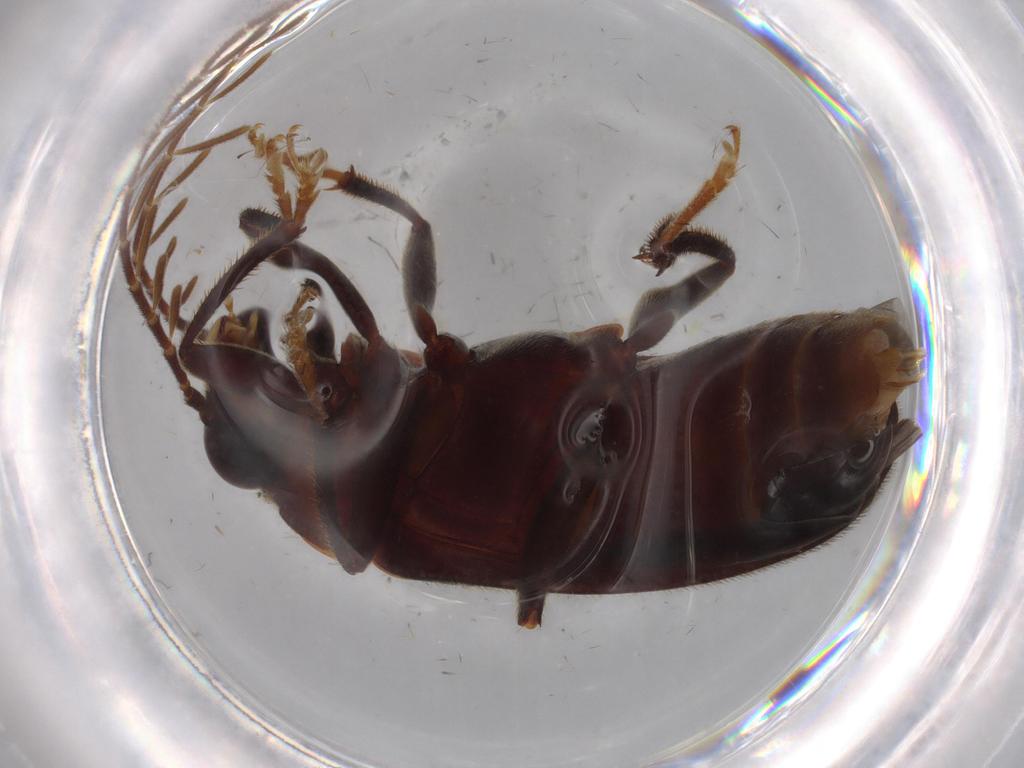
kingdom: Animalia
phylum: Arthropoda
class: Insecta
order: Coleoptera
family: Ptilodactylidae
